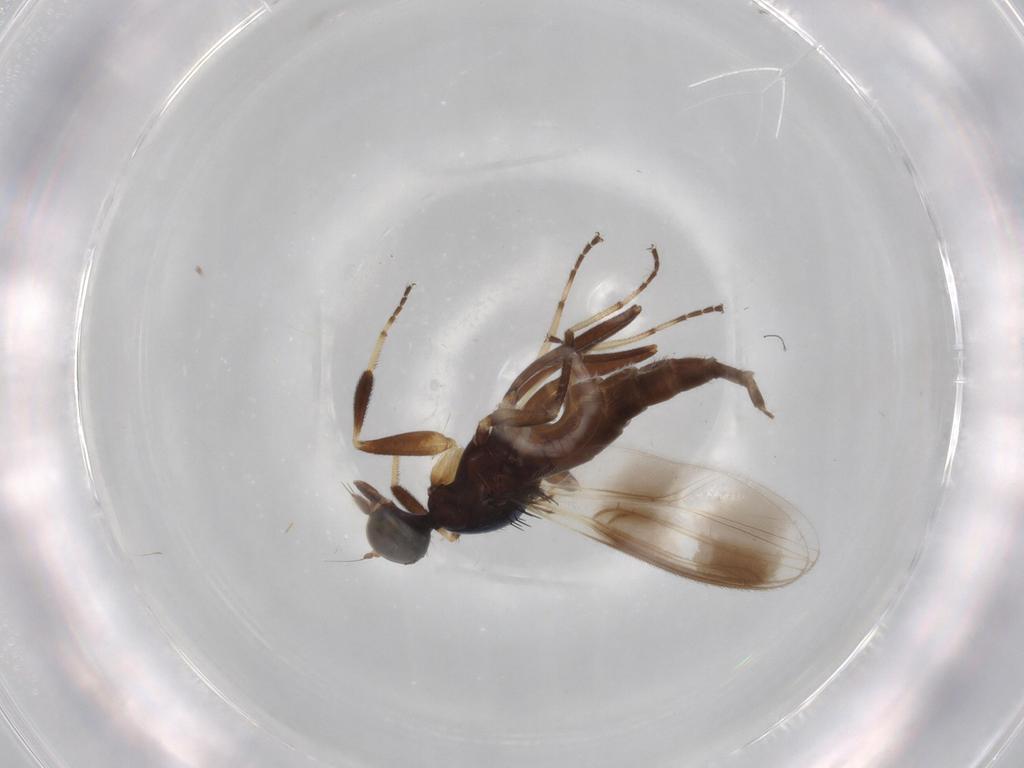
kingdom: Animalia
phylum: Arthropoda
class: Insecta
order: Diptera
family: Hybotidae
